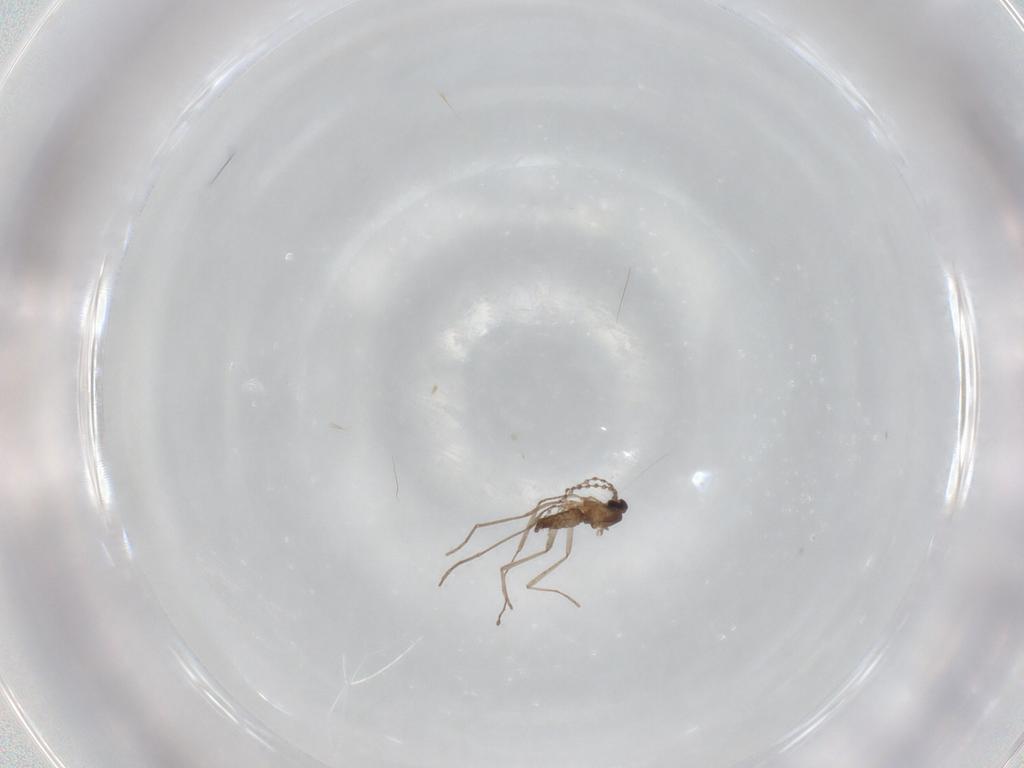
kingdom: Animalia
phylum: Arthropoda
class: Insecta
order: Diptera
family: Cecidomyiidae
